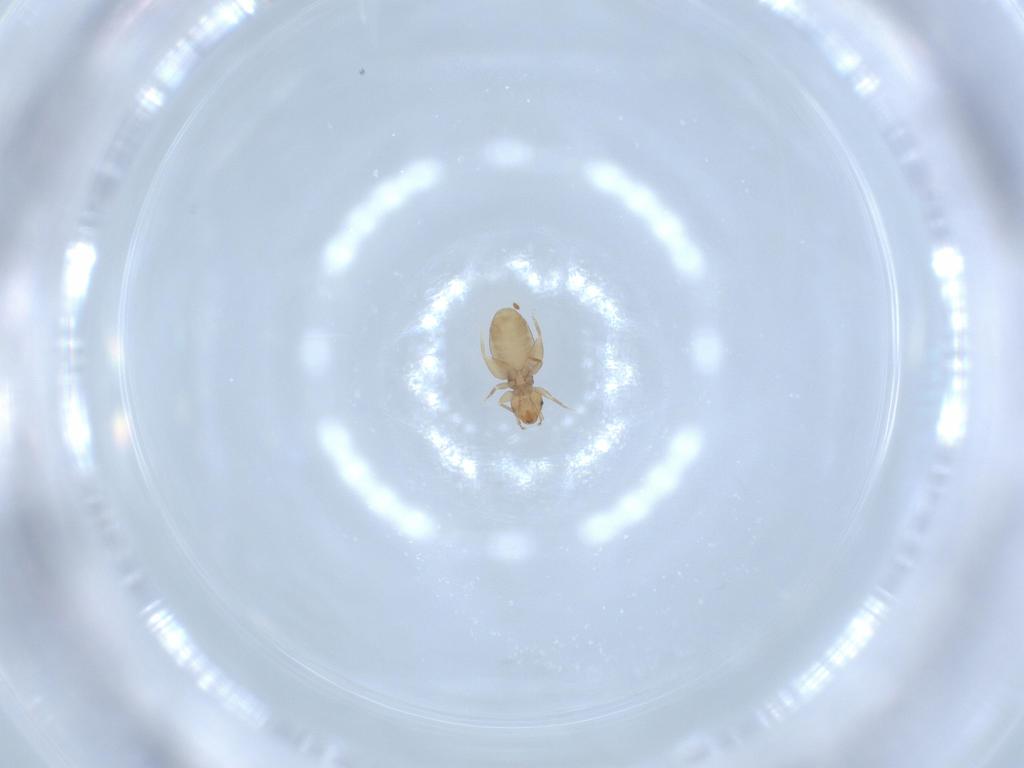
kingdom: Animalia
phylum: Arthropoda
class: Insecta
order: Psocodea
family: Liposcelididae
